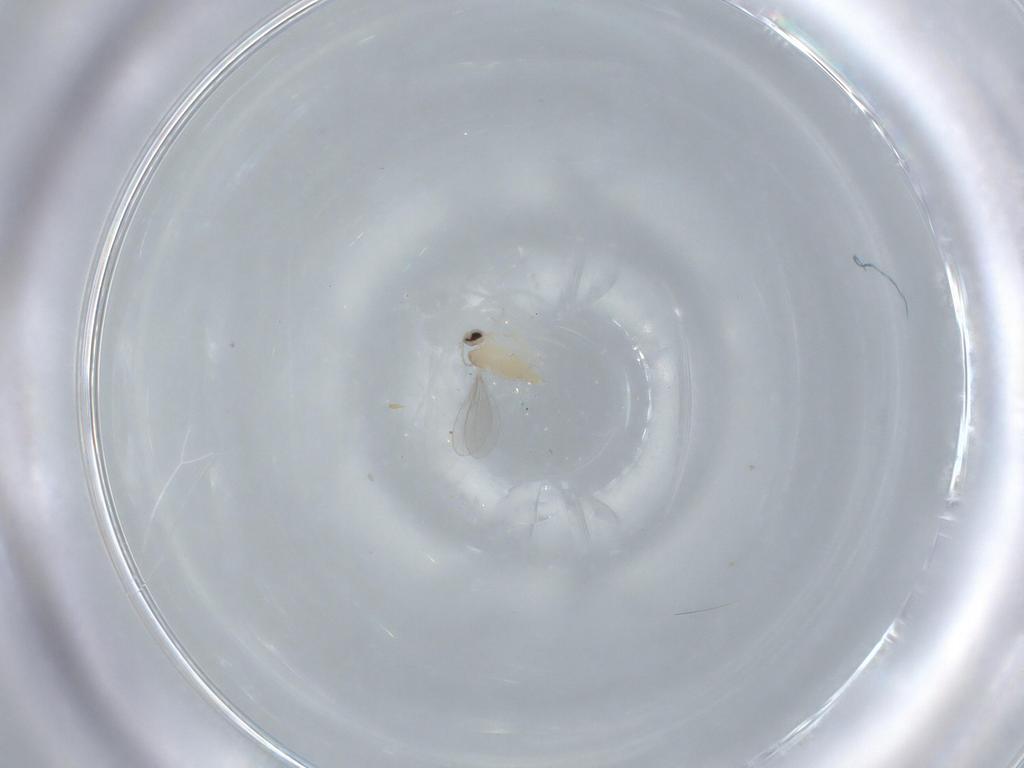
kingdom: Animalia
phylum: Arthropoda
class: Insecta
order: Diptera
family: Cecidomyiidae
